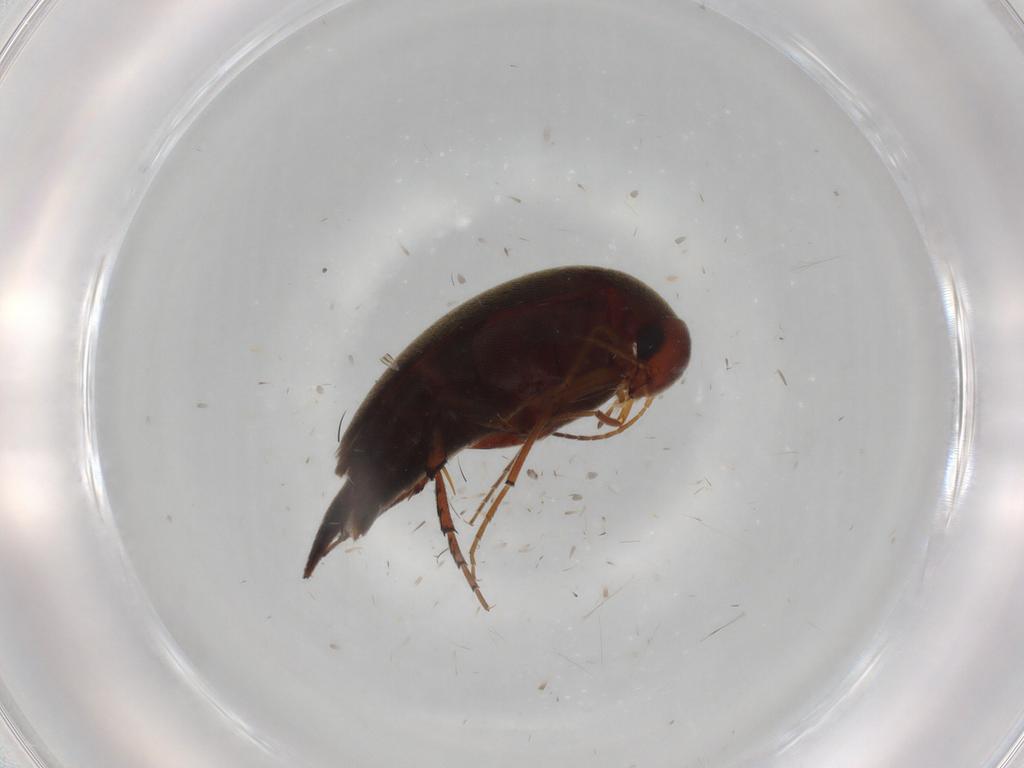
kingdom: Animalia
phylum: Arthropoda
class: Insecta
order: Coleoptera
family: Mordellidae
